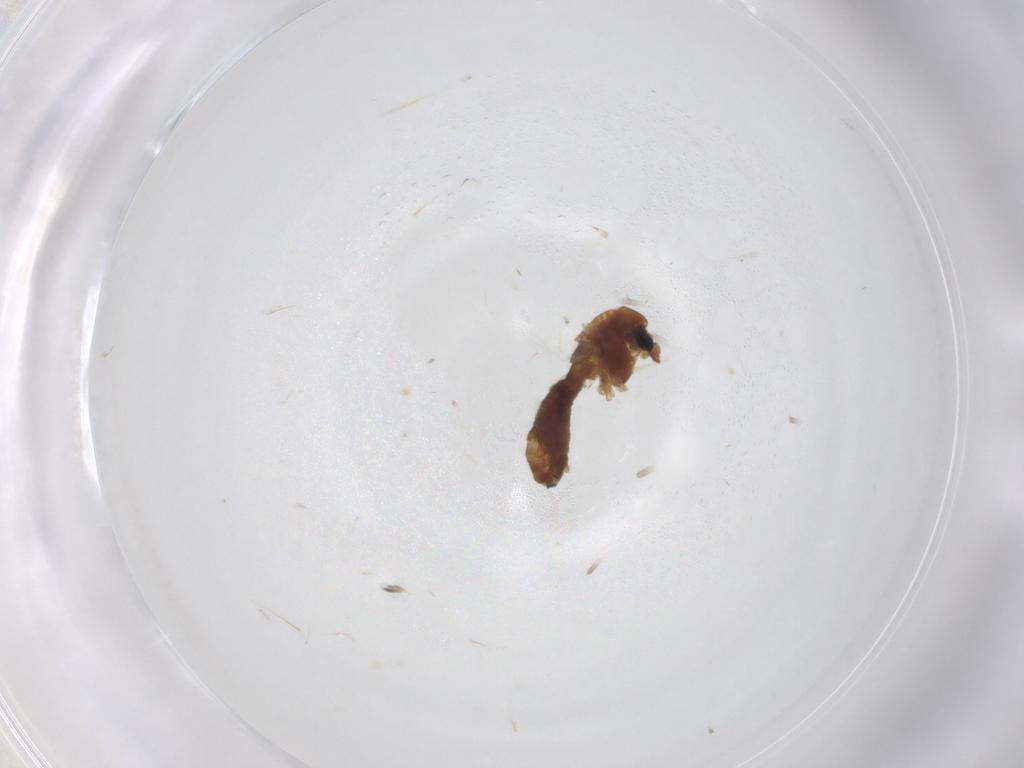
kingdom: Animalia
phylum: Arthropoda
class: Insecta
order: Diptera
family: Chironomidae
